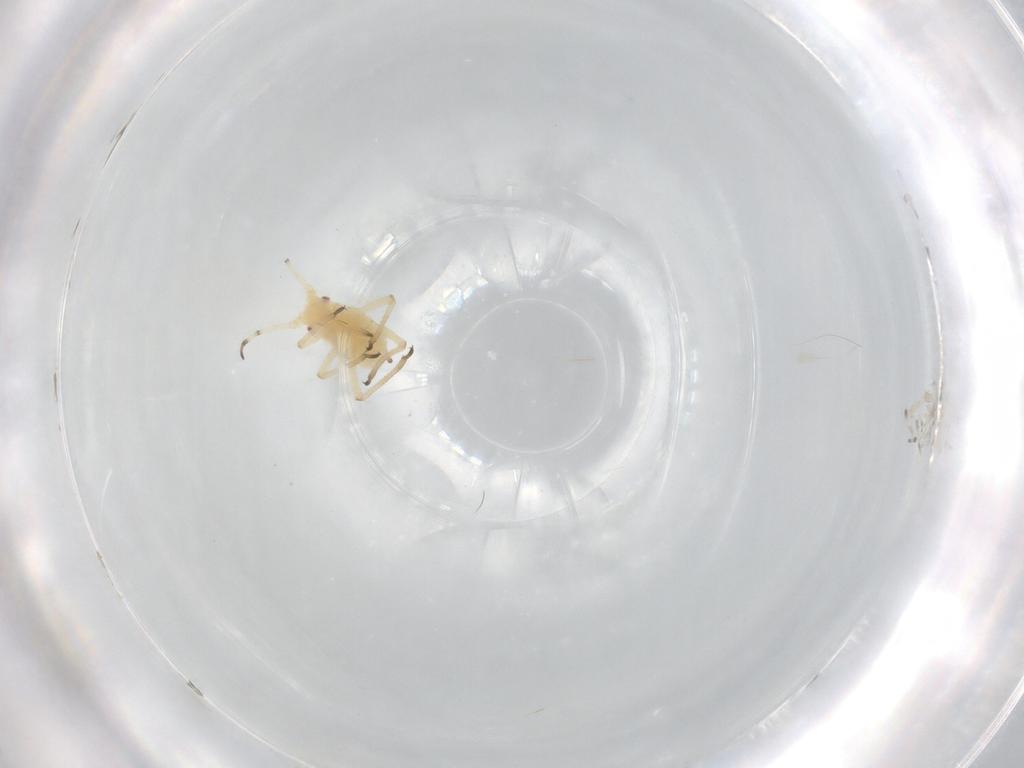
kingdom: Animalia
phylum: Arthropoda
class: Insecta
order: Hemiptera
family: Aphididae
